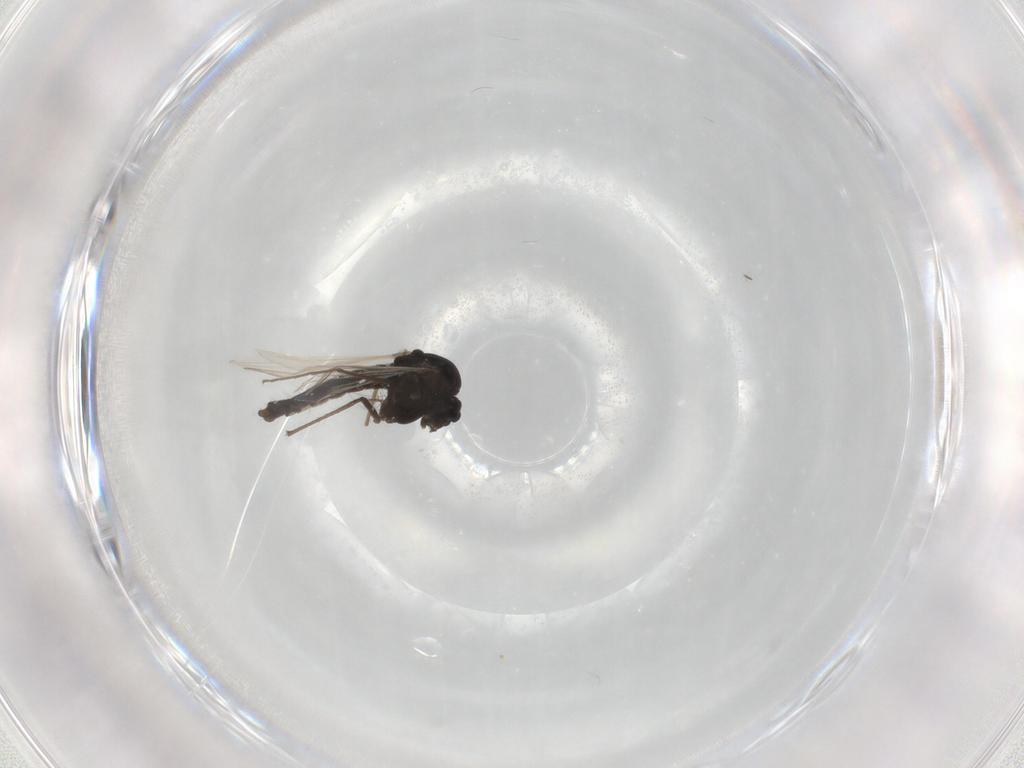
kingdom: Animalia
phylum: Arthropoda
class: Insecta
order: Diptera
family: Chironomidae
